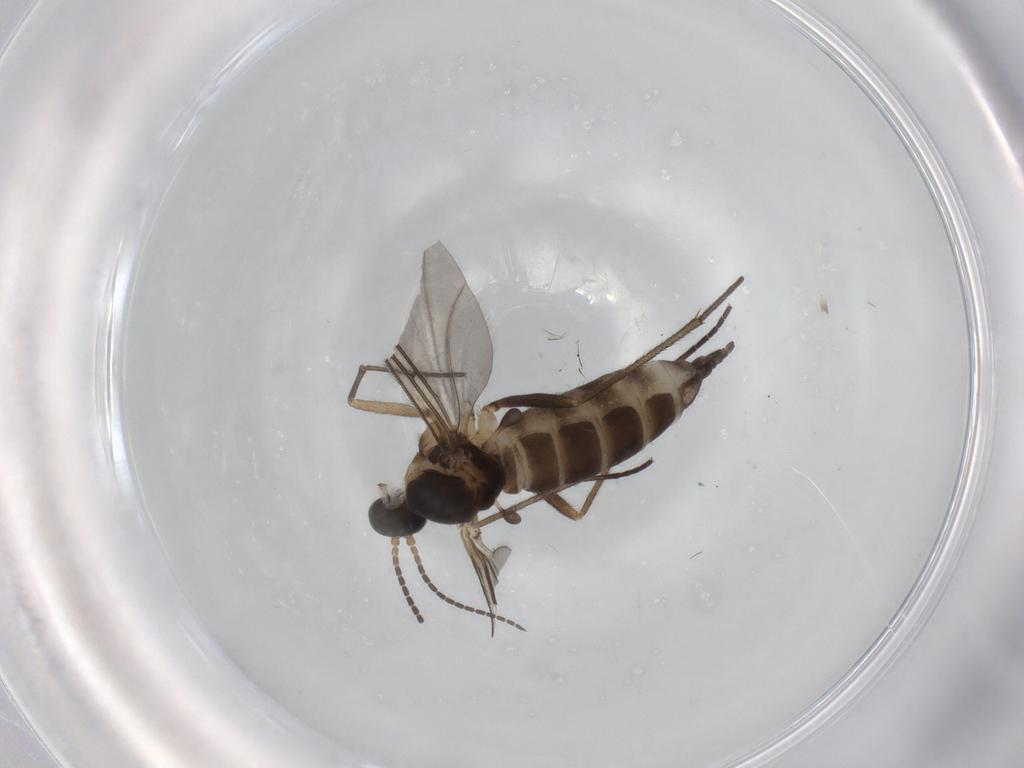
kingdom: Animalia
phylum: Arthropoda
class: Insecta
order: Diptera
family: Sciaridae
